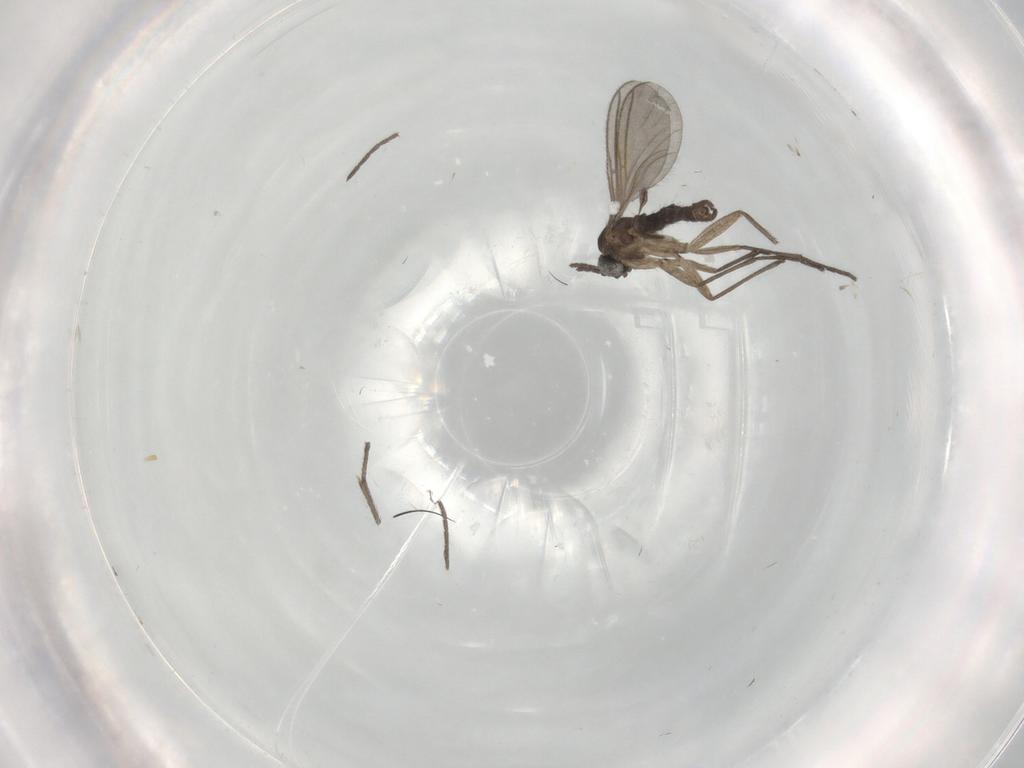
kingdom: Animalia
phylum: Arthropoda
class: Insecta
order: Diptera
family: Sciaridae
